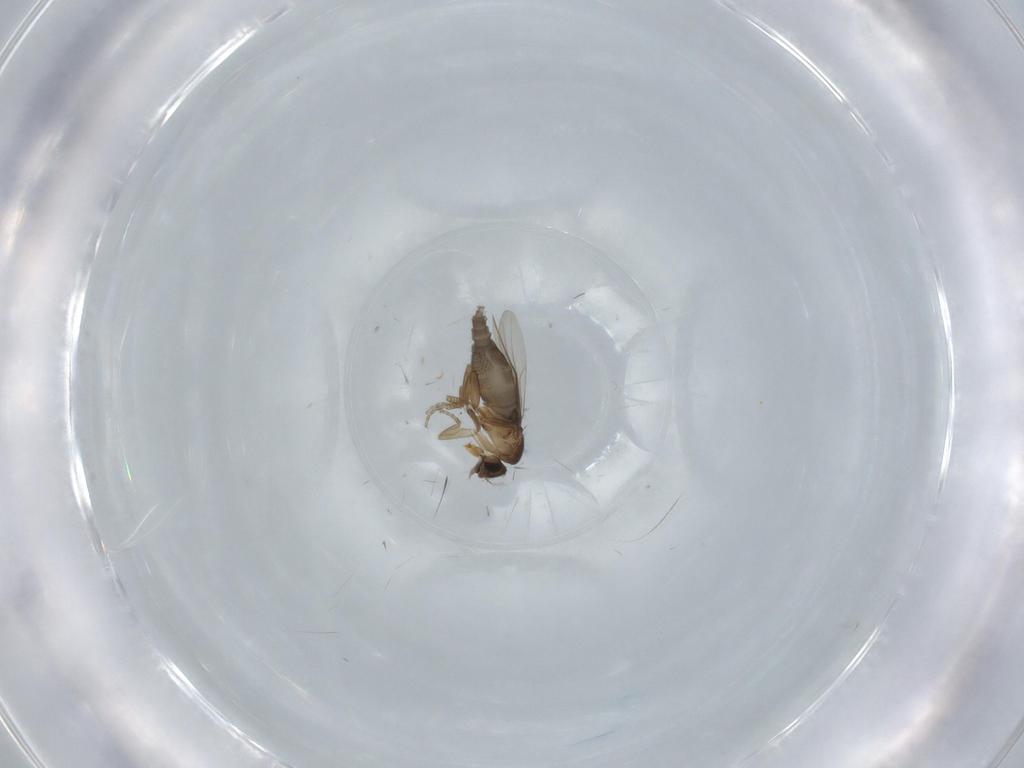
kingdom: Animalia
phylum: Arthropoda
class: Insecta
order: Diptera
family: Phoridae
